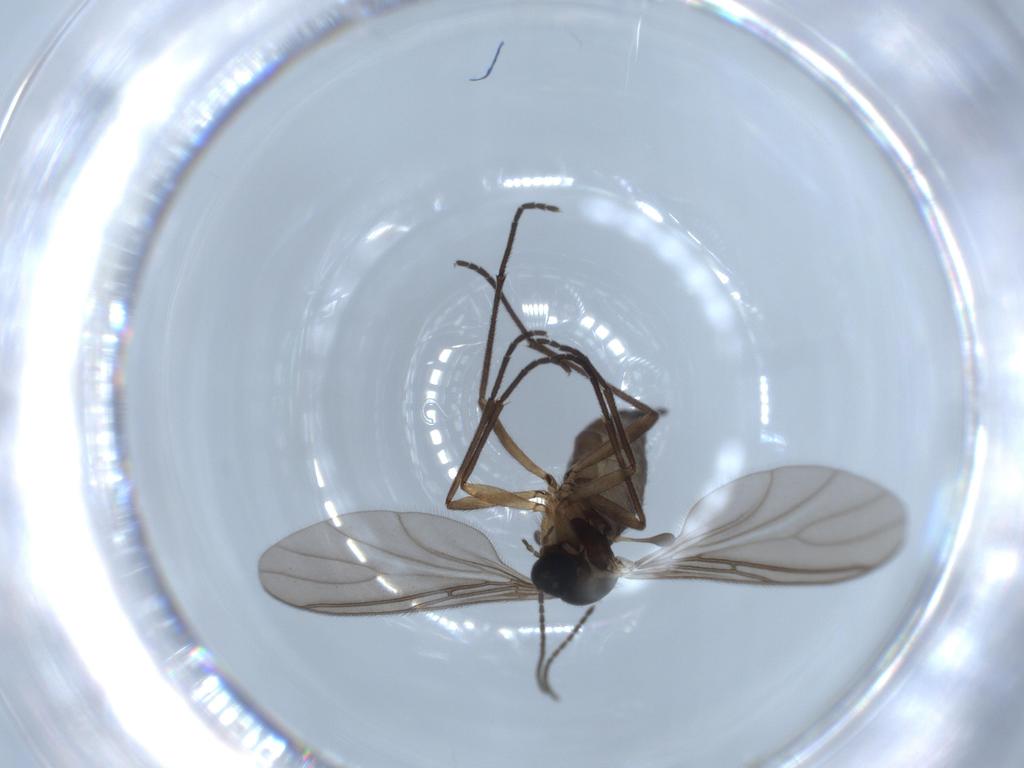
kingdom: Animalia
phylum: Arthropoda
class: Insecta
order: Diptera
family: Sciaridae
